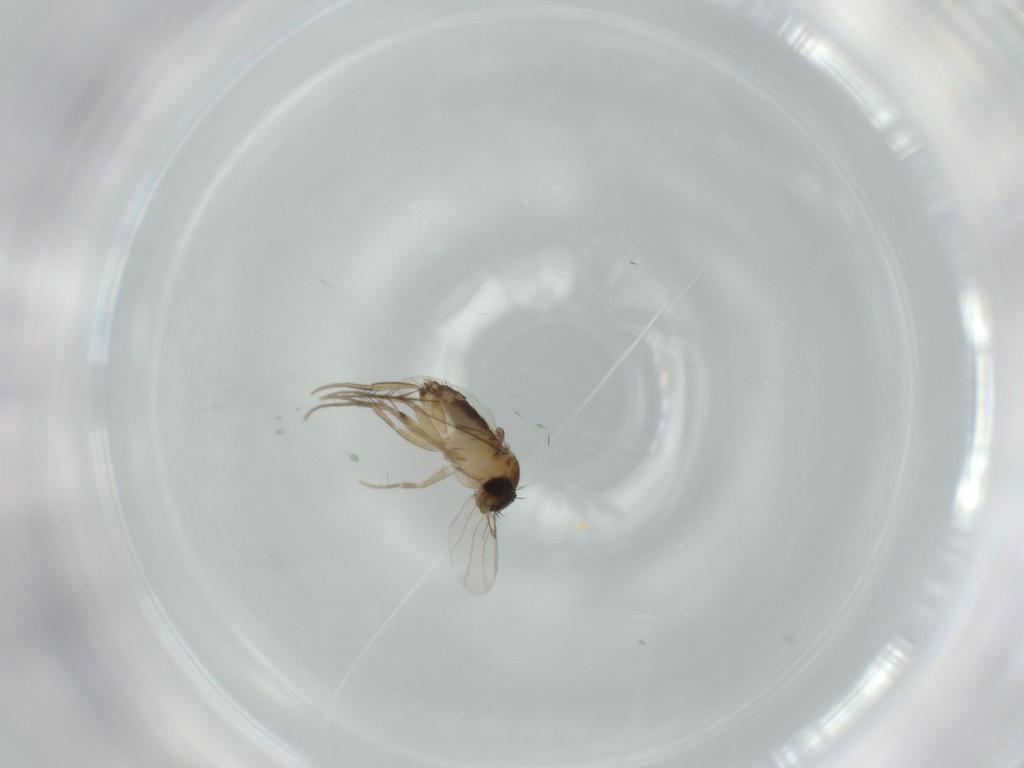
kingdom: Animalia
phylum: Arthropoda
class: Insecta
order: Diptera
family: Phoridae
